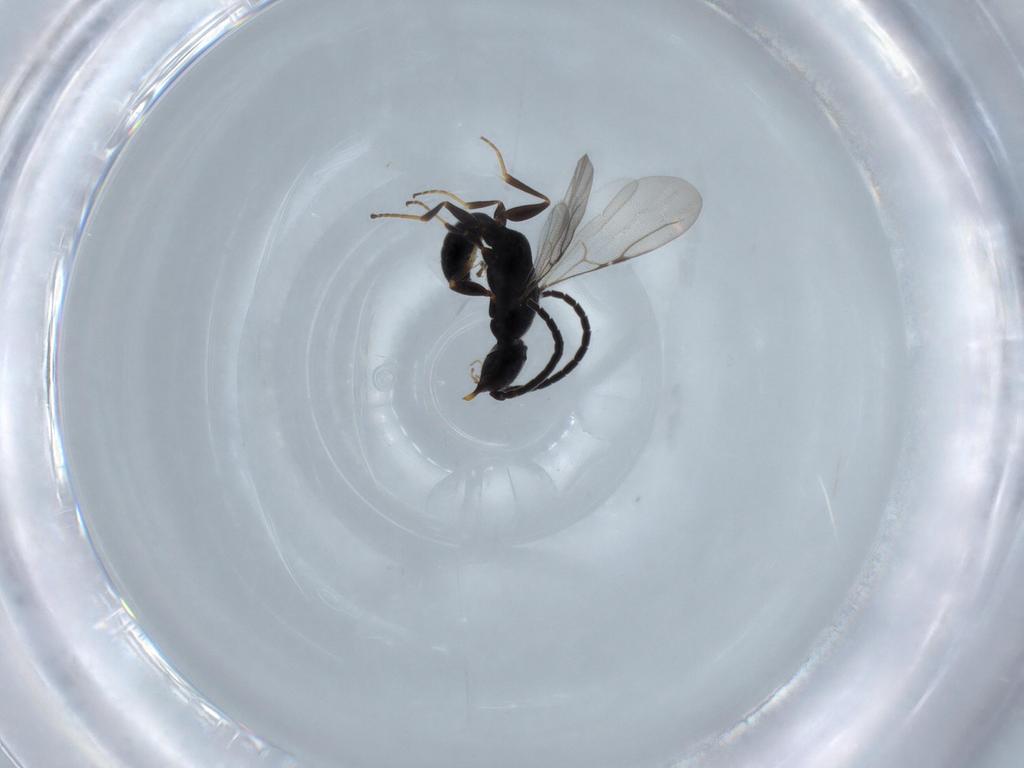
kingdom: Animalia
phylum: Arthropoda
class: Insecta
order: Hymenoptera
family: Bethylidae
